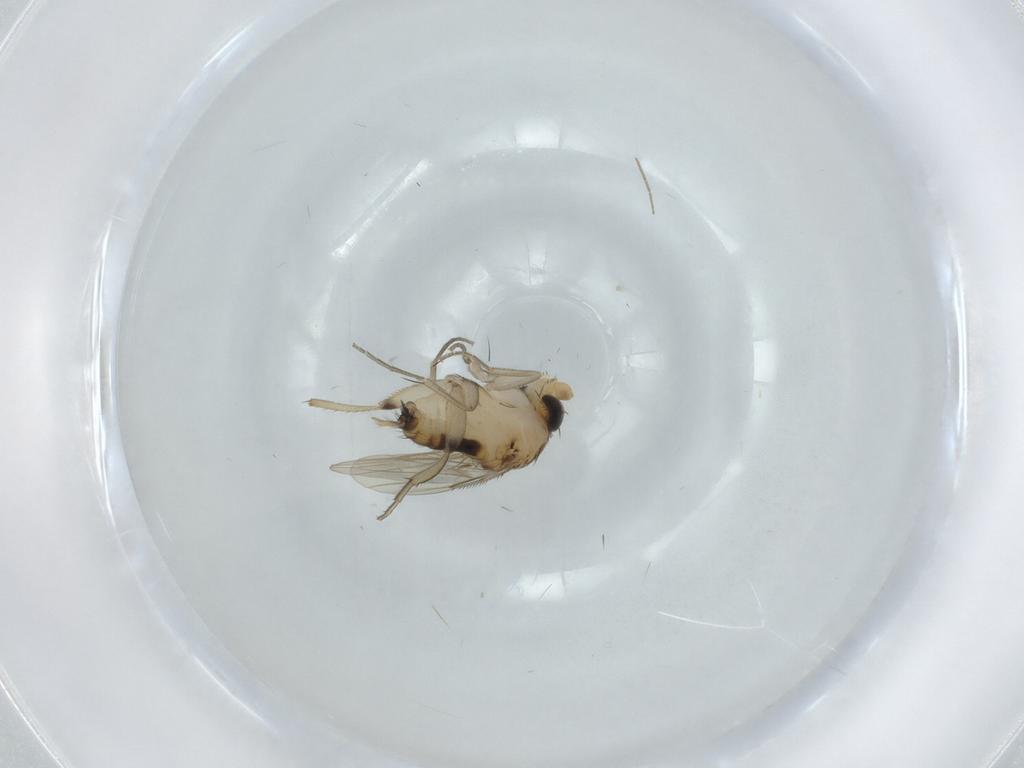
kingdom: Animalia
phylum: Arthropoda
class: Insecta
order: Diptera
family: Phoridae
